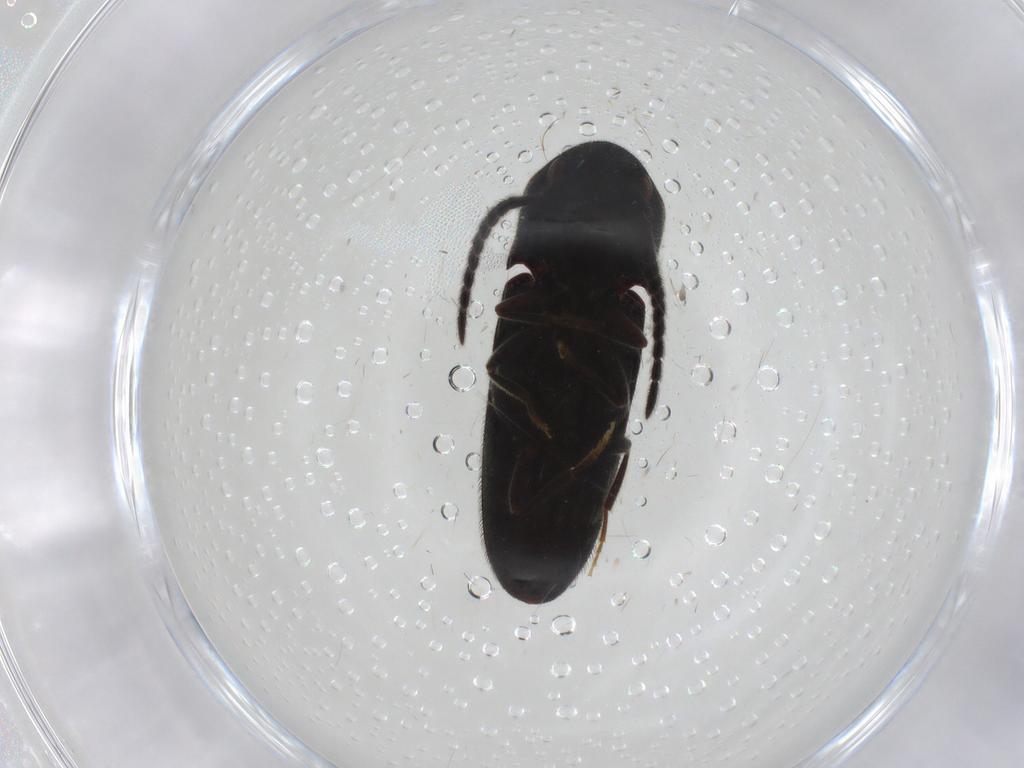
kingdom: Animalia
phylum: Arthropoda
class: Insecta
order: Coleoptera
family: Eucnemidae
